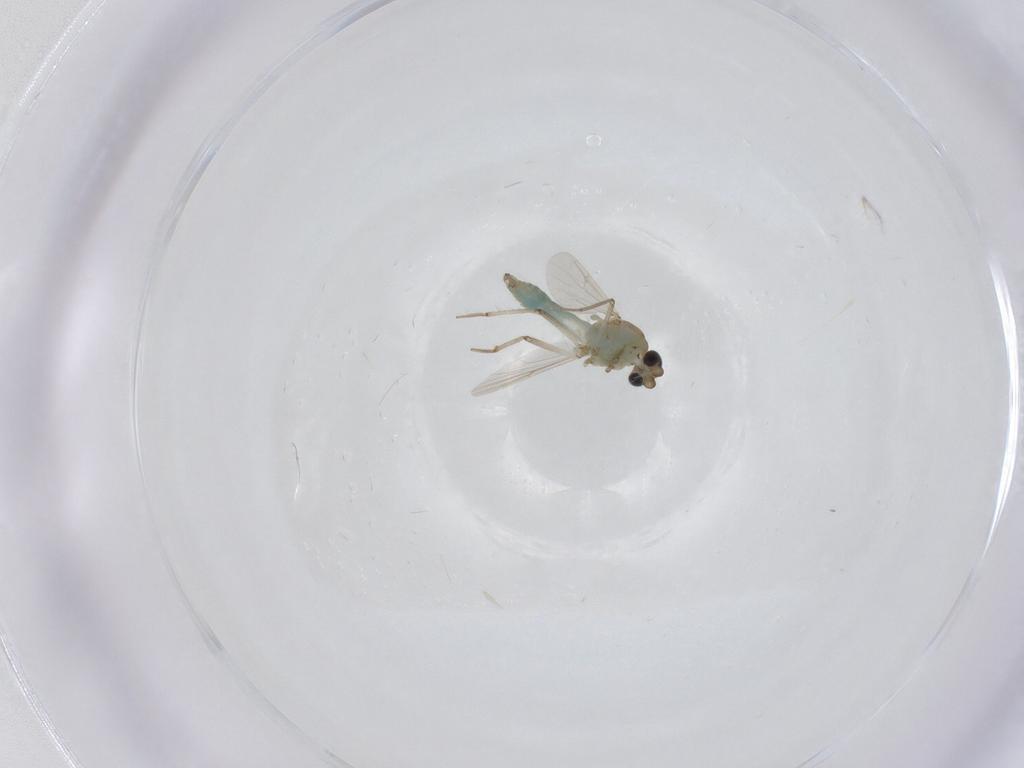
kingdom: Animalia
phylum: Arthropoda
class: Insecta
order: Diptera
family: Ceratopogonidae
